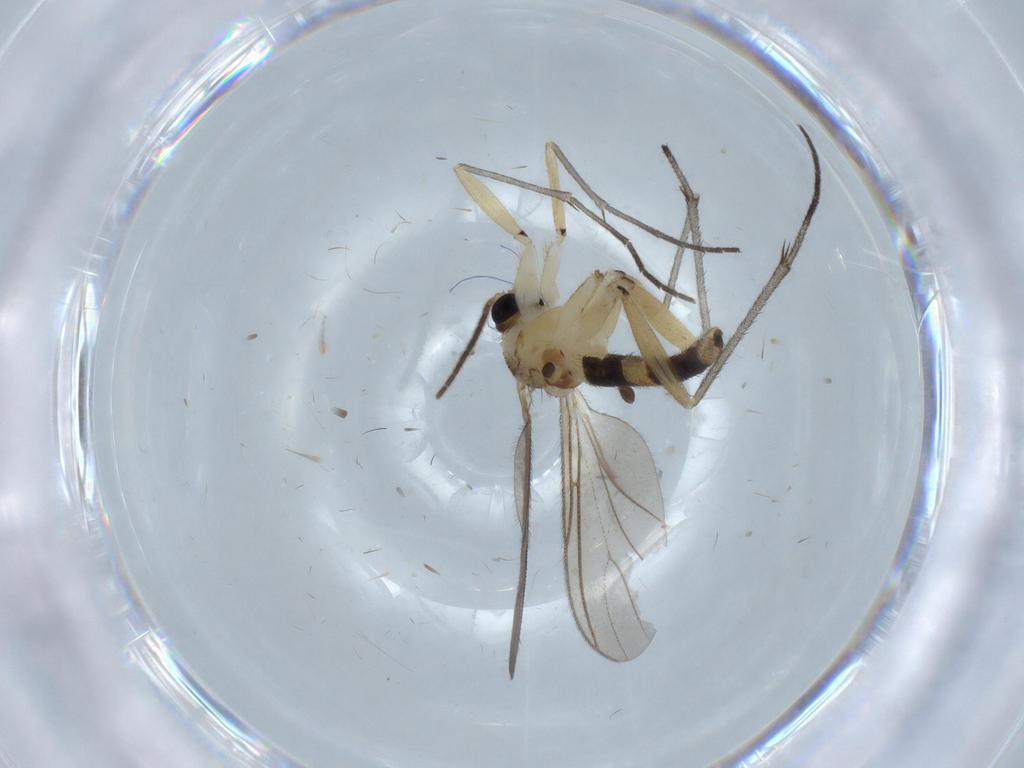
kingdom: Animalia
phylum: Arthropoda
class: Insecta
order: Diptera
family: Sciaridae
